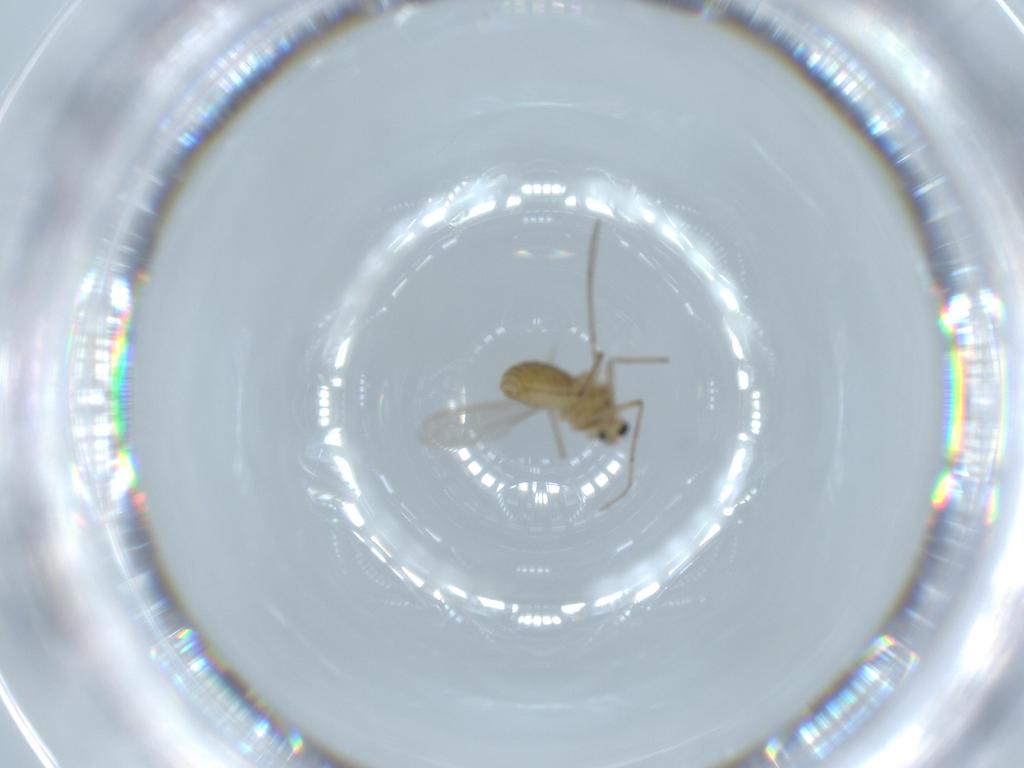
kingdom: Animalia
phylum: Arthropoda
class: Insecta
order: Diptera
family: Chironomidae
